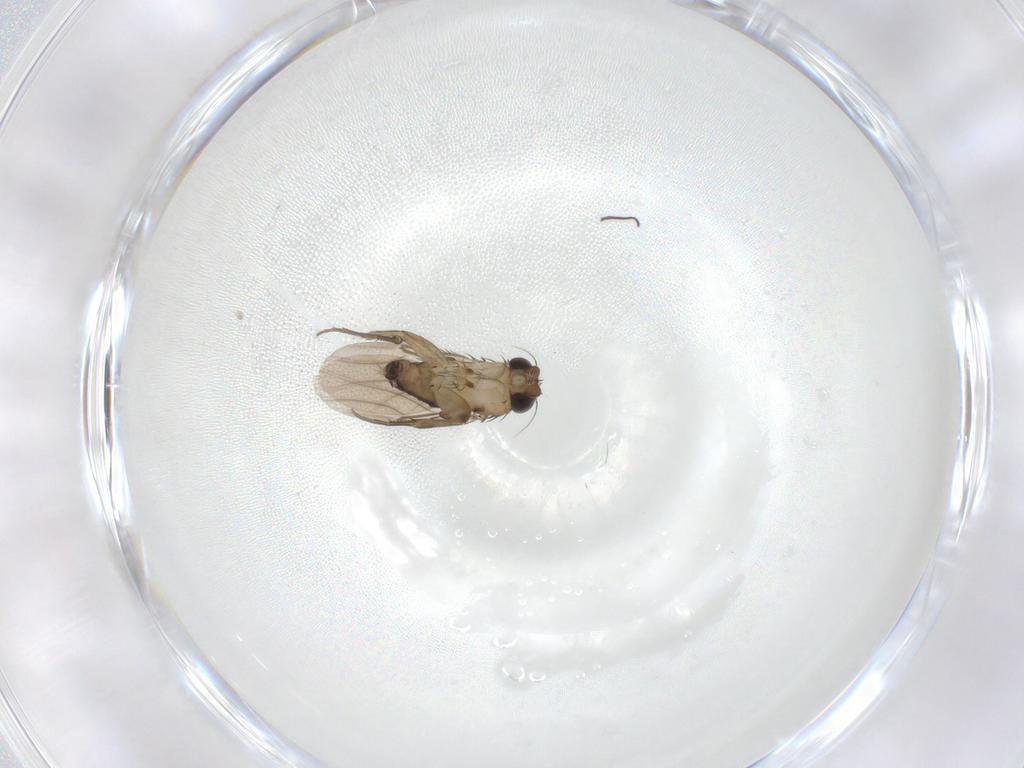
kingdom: Animalia
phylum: Arthropoda
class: Insecta
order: Diptera
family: Phoridae
